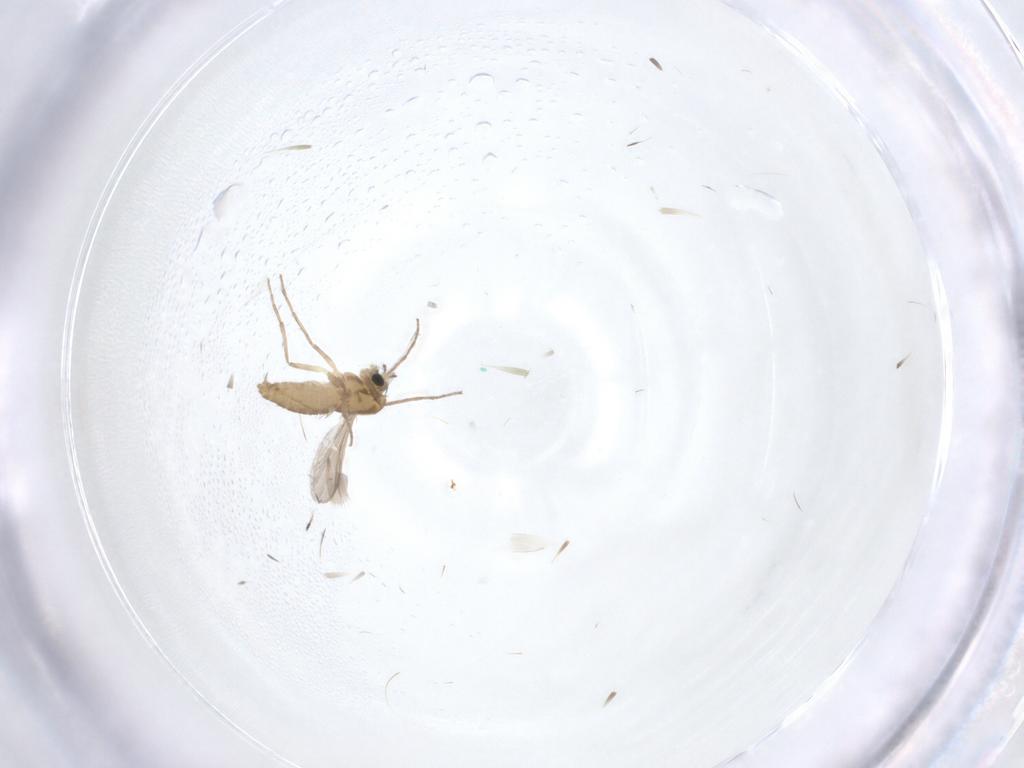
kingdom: Animalia
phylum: Arthropoda
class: Insecta
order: Diptera
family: Chironomidae
